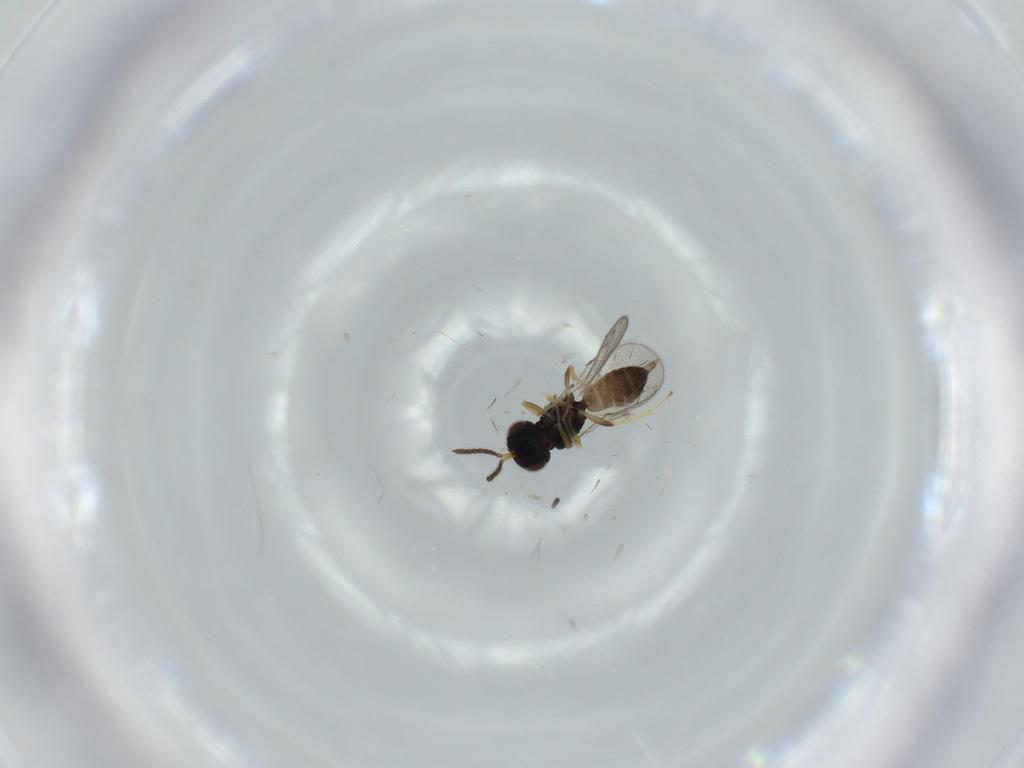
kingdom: Animalia
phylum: Arthropoda
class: Insecta
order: Hymenoptera
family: Pteromalidae
